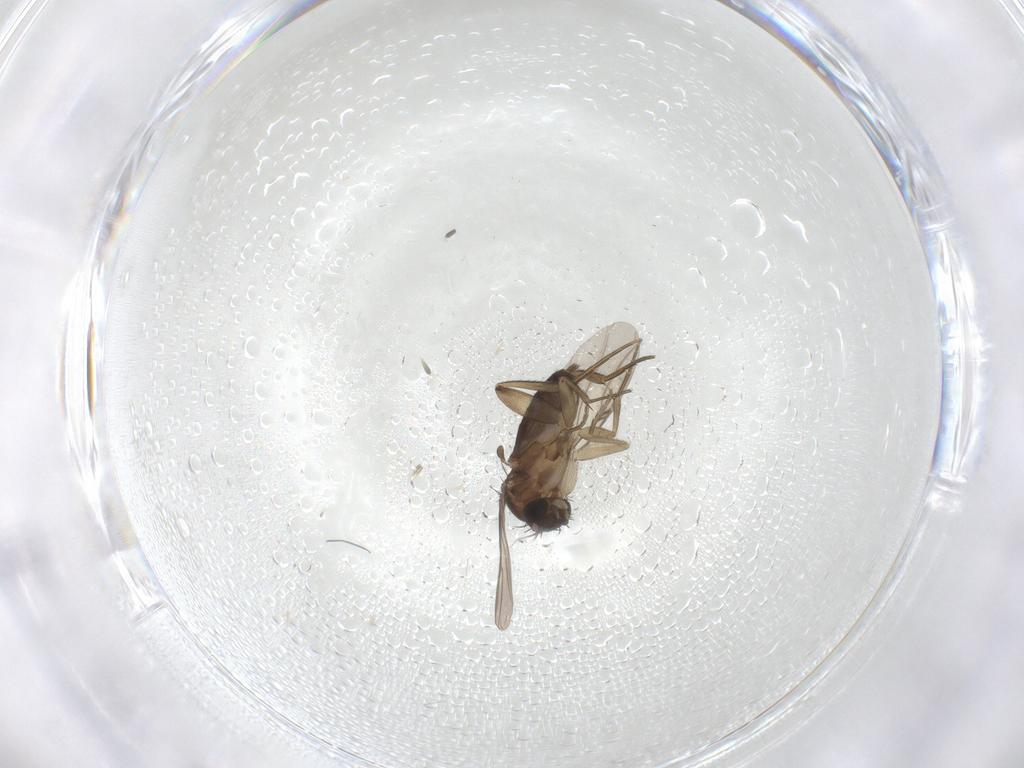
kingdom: Animalia
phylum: Arthropoda
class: Insecta
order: Diptera
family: Phoridae
